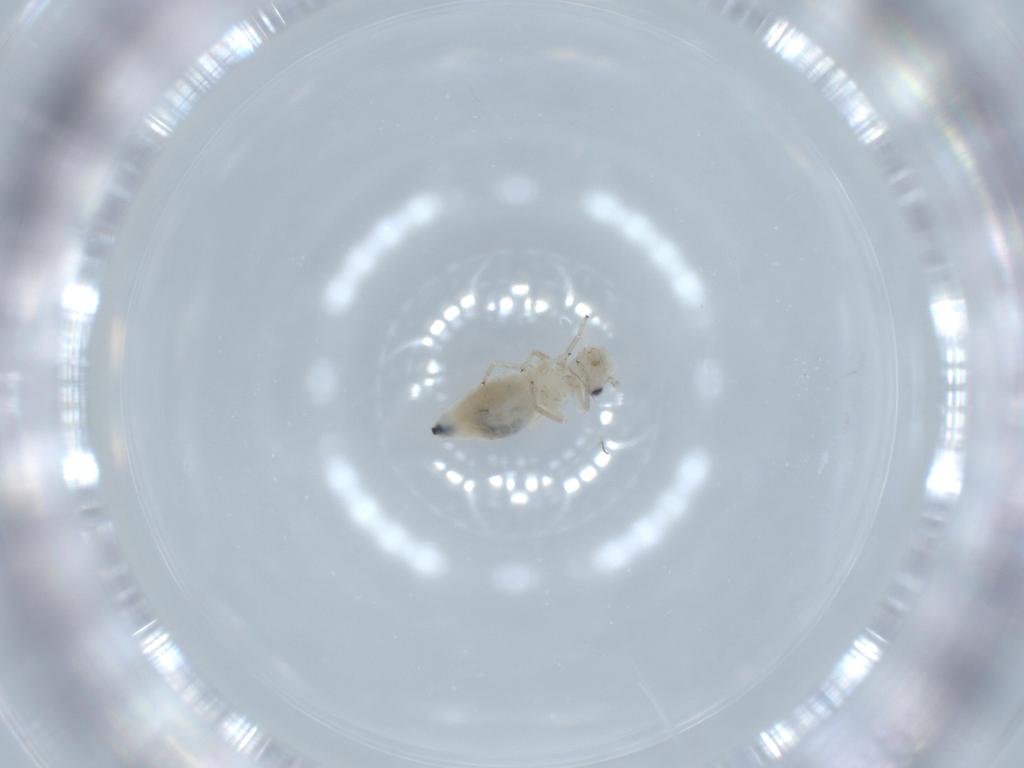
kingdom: Animalia
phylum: Arthropoda
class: Insecta
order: Psocodea
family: Caeciliusidae
